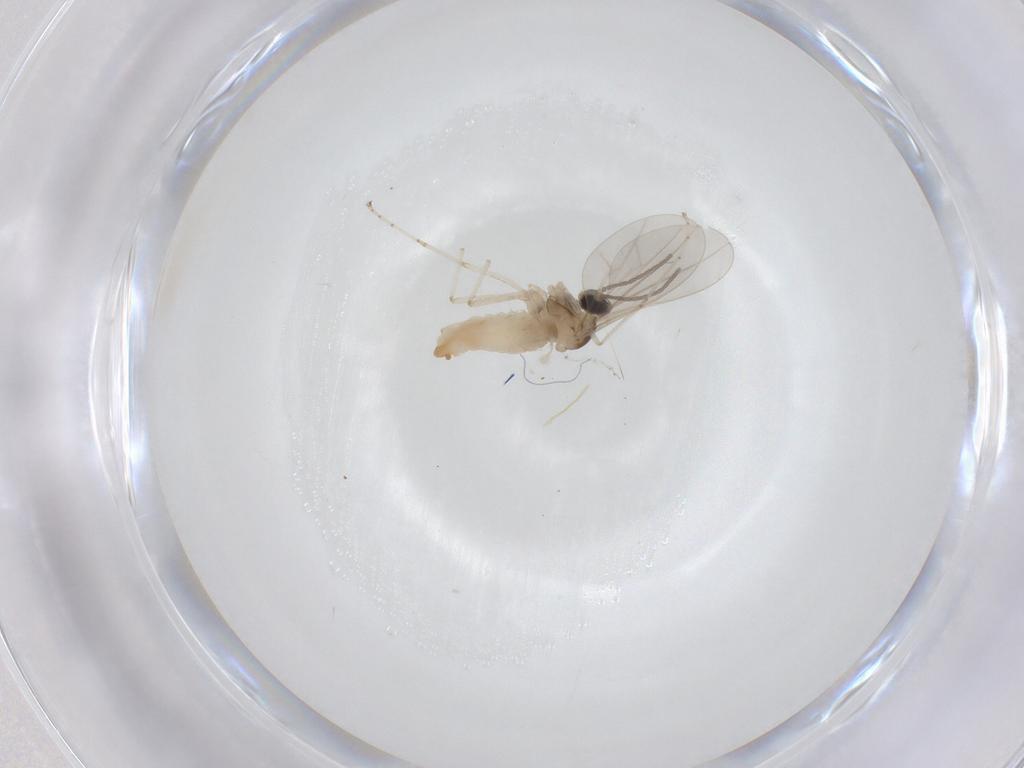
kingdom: Animalia
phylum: Arthropoda
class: Insecta
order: Diptera
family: Cecidomyiidae
